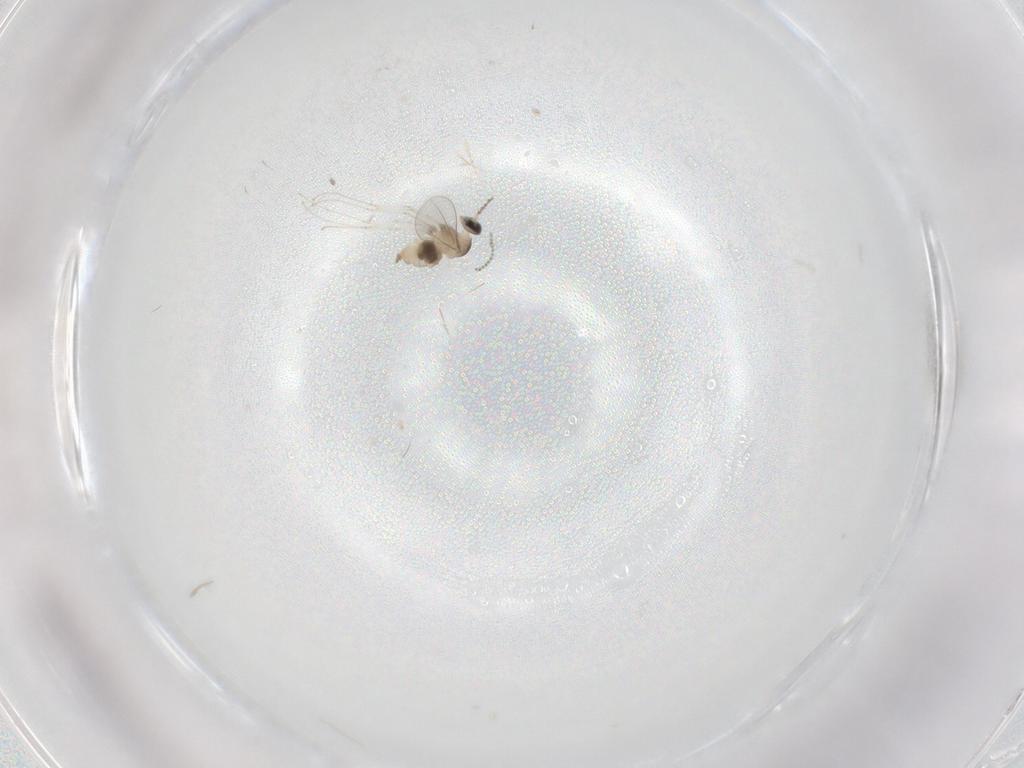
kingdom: Animalia
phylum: Arthropoda
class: Insecta
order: Diptera
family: Cecidomyiidae
